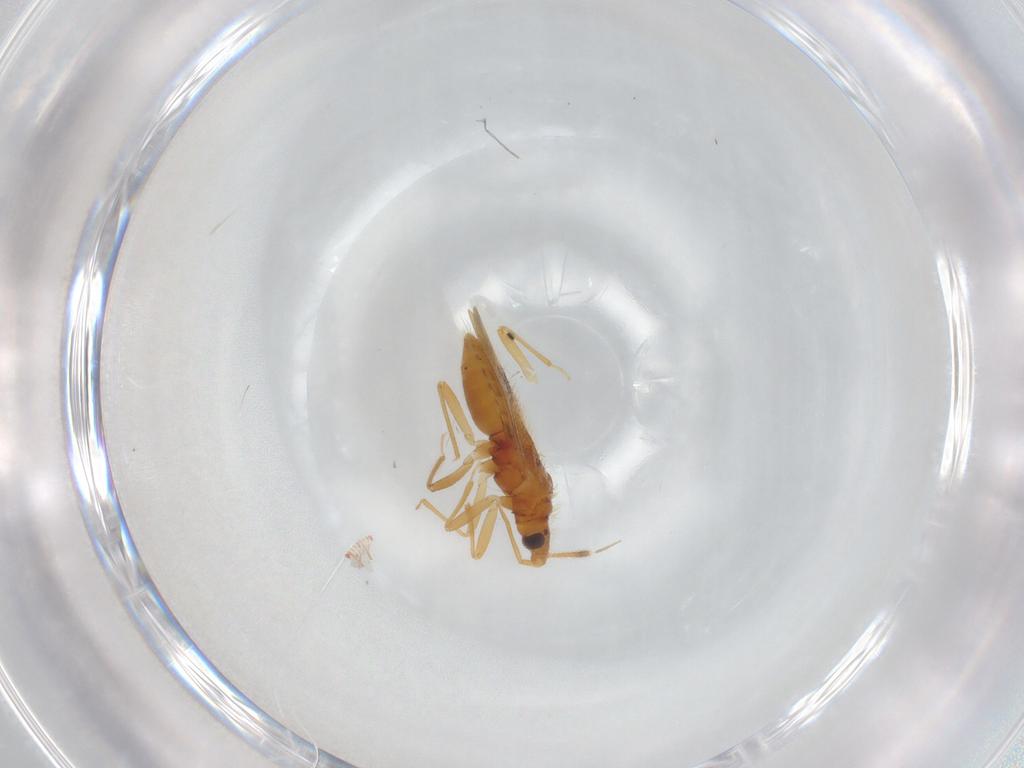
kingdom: Animalia
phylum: Arthropoda
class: Insecta
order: Hemiptera
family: Anthocoridae
